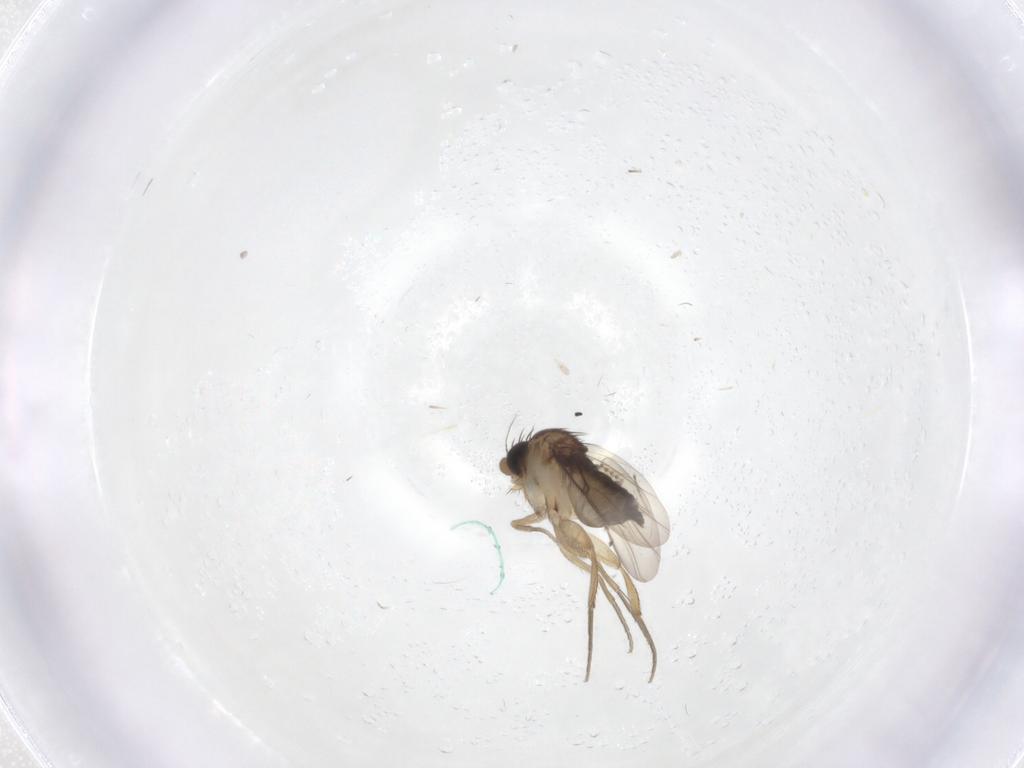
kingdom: Animalia
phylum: Arthropoda
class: Insecta
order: Diptera
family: Phoridae
